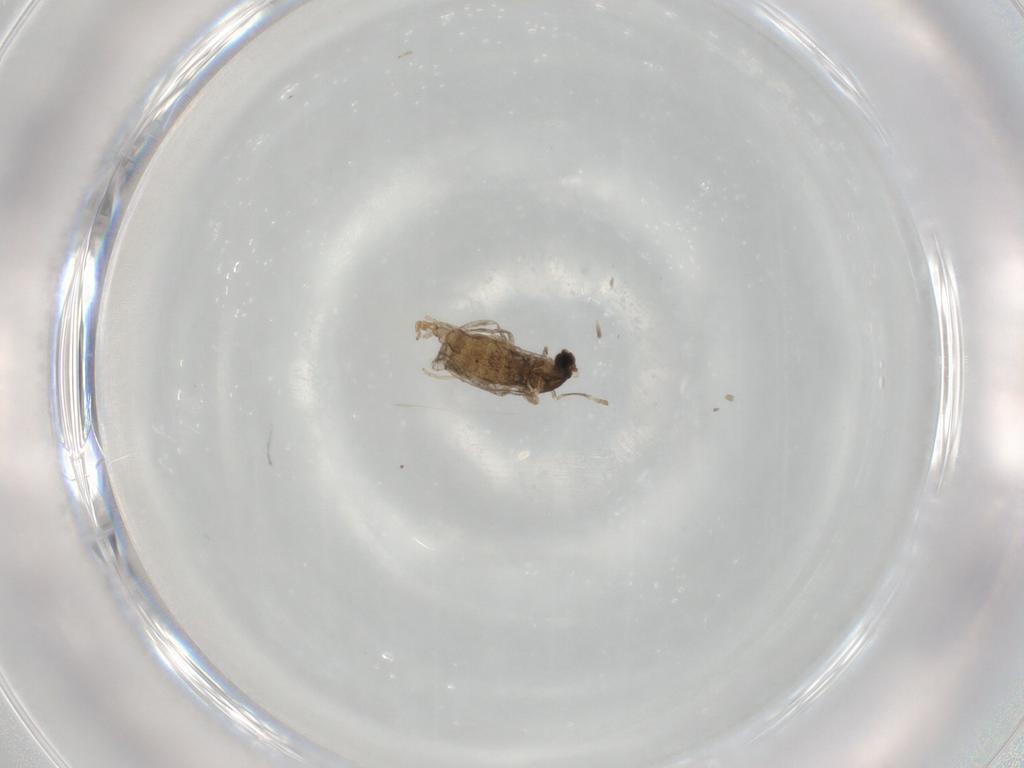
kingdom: Animalia
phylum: Arthropoda
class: Insecta
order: Diptera
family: Cecidomyiidae
